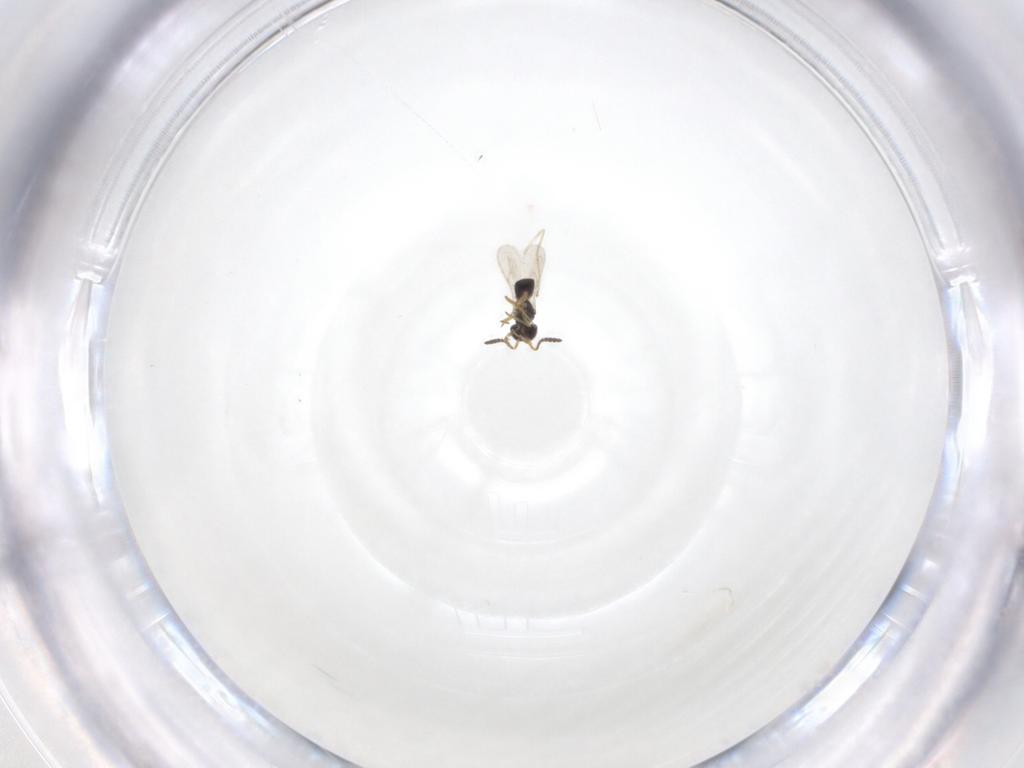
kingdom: Animalia
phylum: Arthropoda
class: Insecta
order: Hymenoptera
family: Scelionidae
